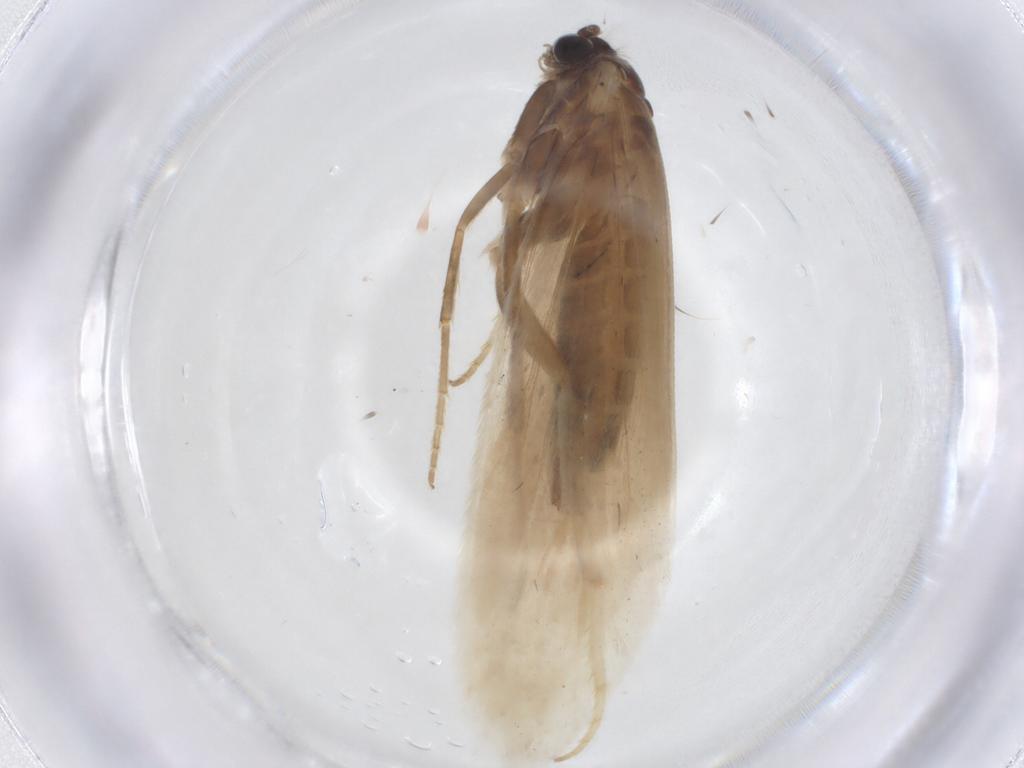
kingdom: Animalia
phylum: Arthropoda
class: Insecta
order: Lepidoptera
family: Tridentaformidae
